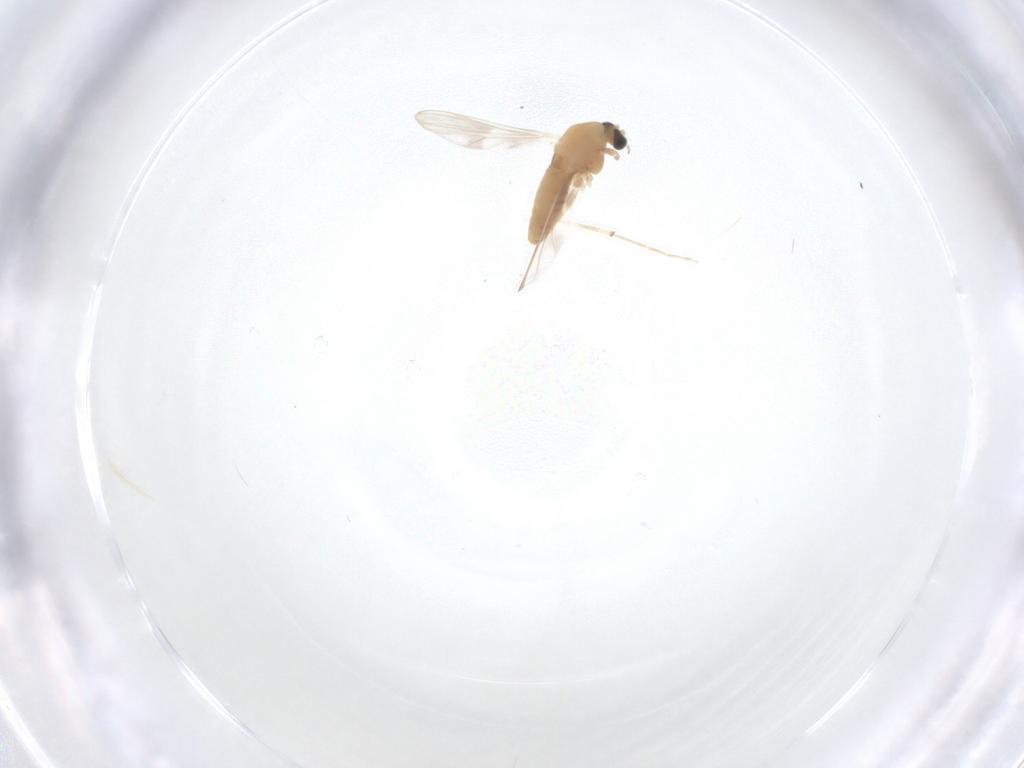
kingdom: Animalia
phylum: Arthropoda
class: Insecta
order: Diptera
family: Chironomidae
